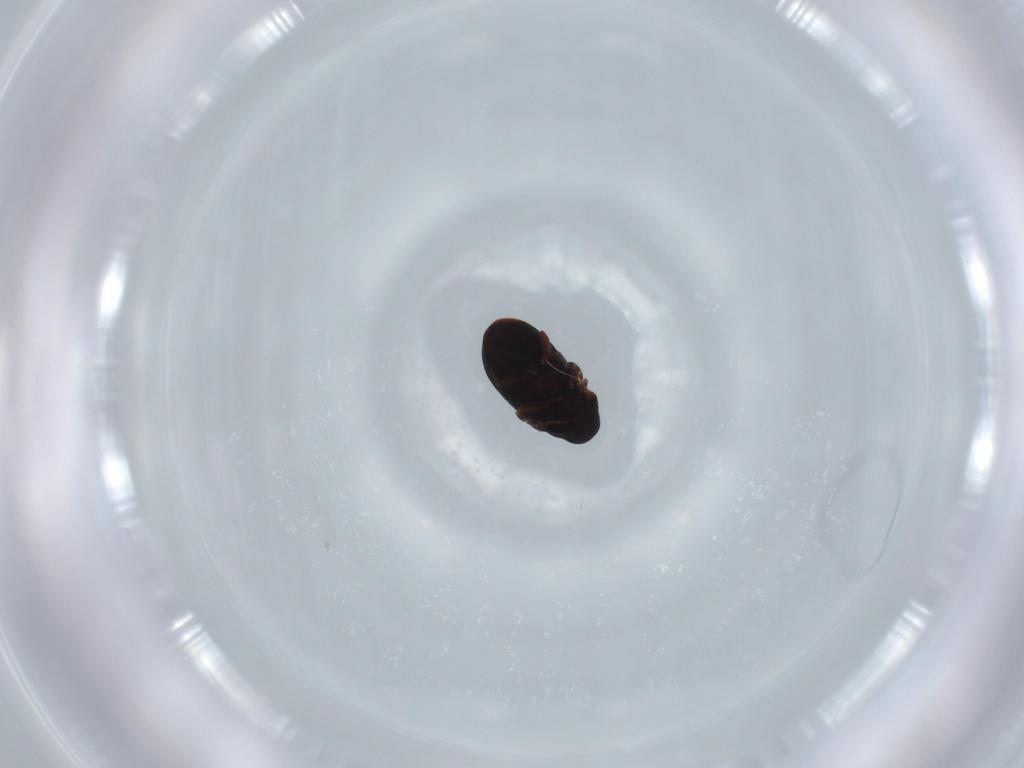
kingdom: Animalia
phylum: Arthropoda
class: Insecta
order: Coleoptera
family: Ptinidae
